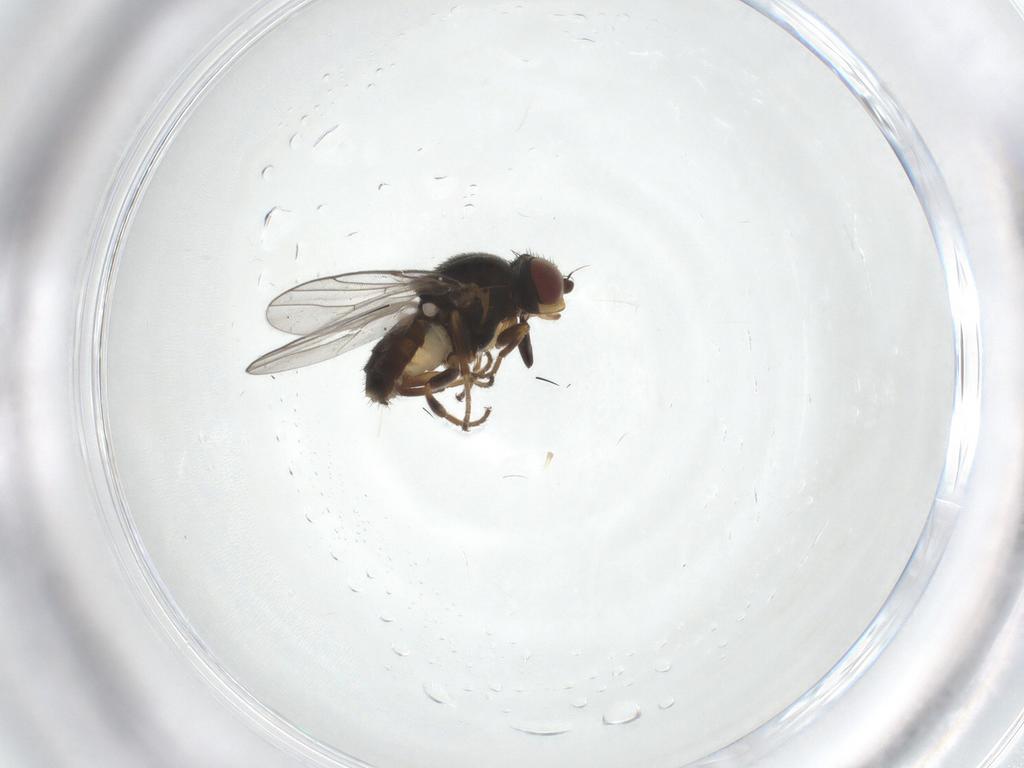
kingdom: Animalia
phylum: Arthropoda
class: Insecta
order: Diptera
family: Chloropidae
